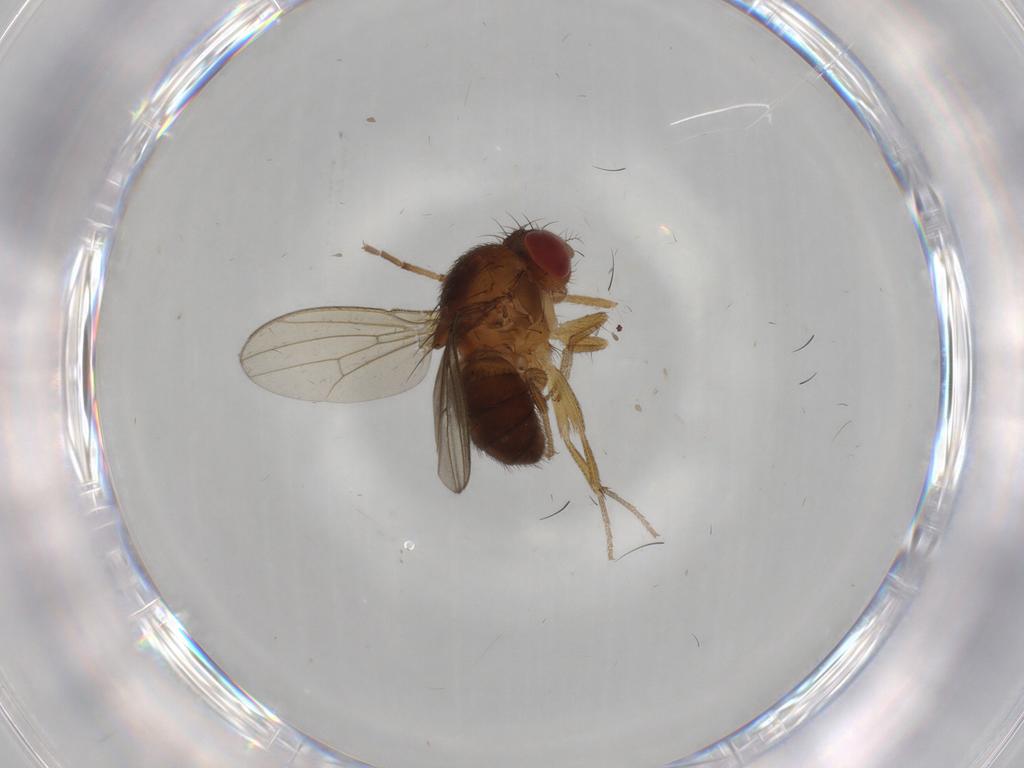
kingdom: Animalia
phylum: Arthropoda
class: Insecta
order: Diptera
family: Drosophilidae
